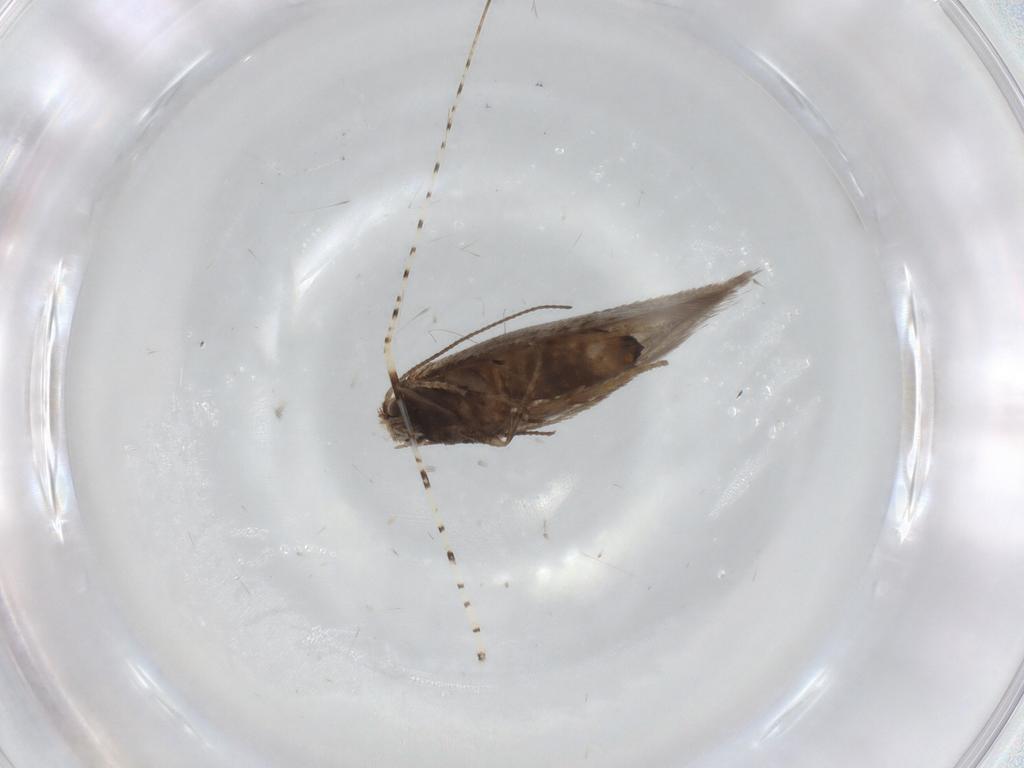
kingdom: Animalia
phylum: Arthropoda
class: Insecta
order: Lepidoptera
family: Nepticulidae
